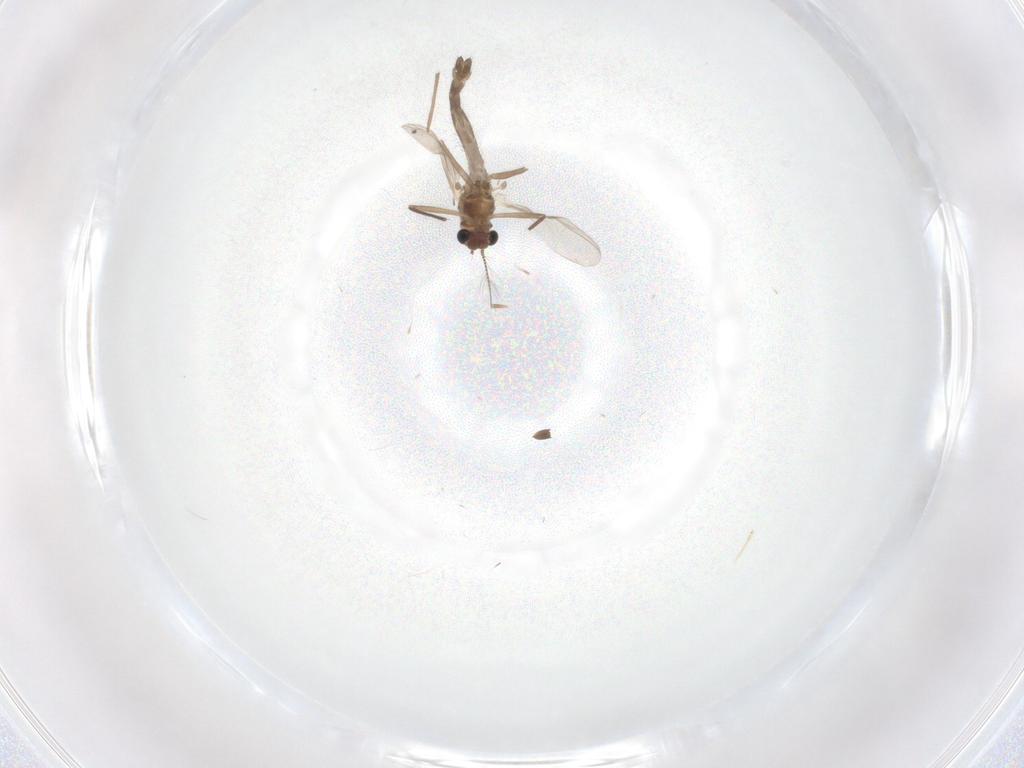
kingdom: Animalia
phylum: Arthropoda
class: Insecta
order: Diptera
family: Chironomidae
